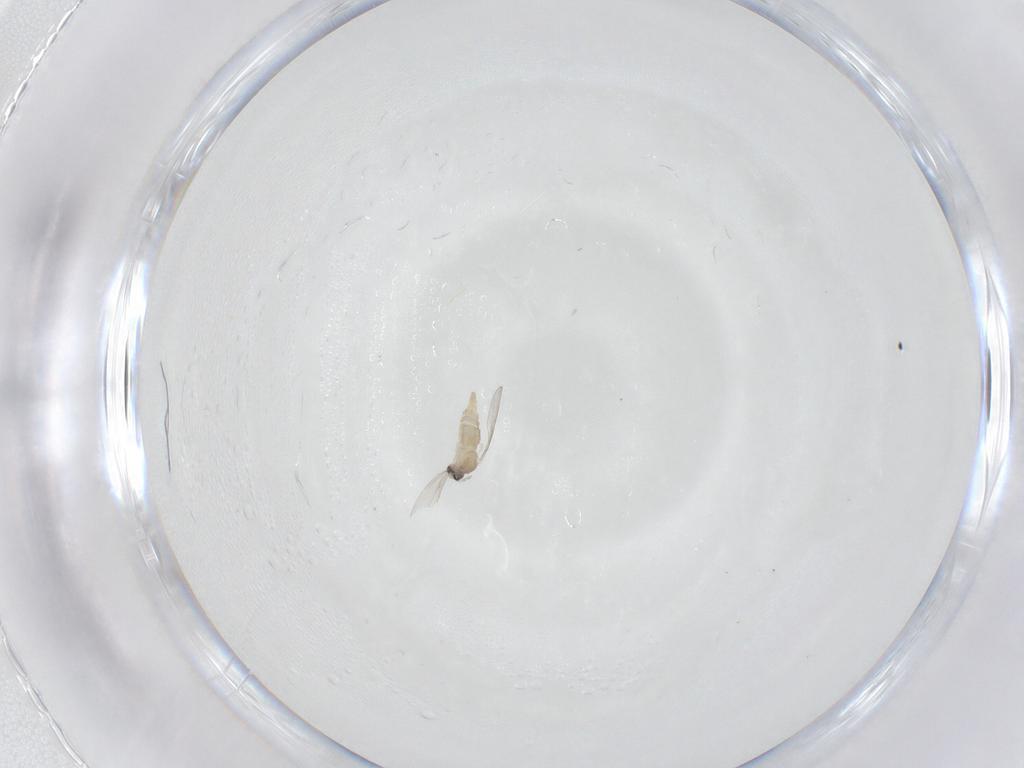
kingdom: Animalia
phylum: Arthropoda
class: Insecta
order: Diptera
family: Cecidomyiidae
